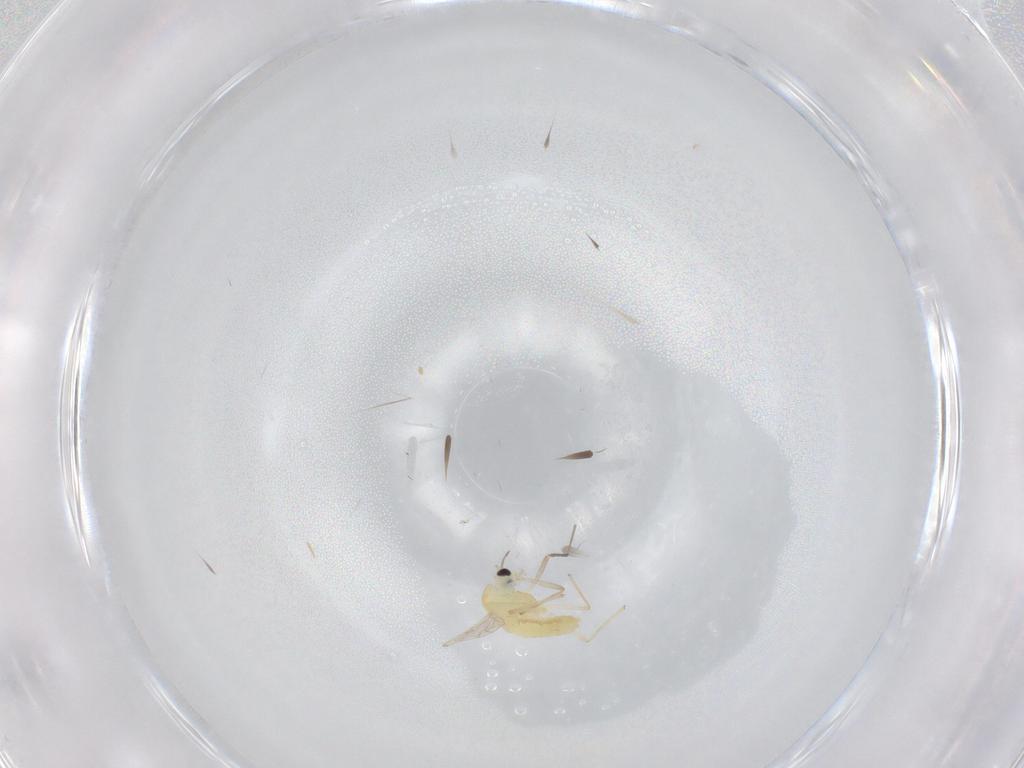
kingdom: Animalia
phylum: Arthropoda
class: Insecta
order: Diptera
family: Chironomidae
